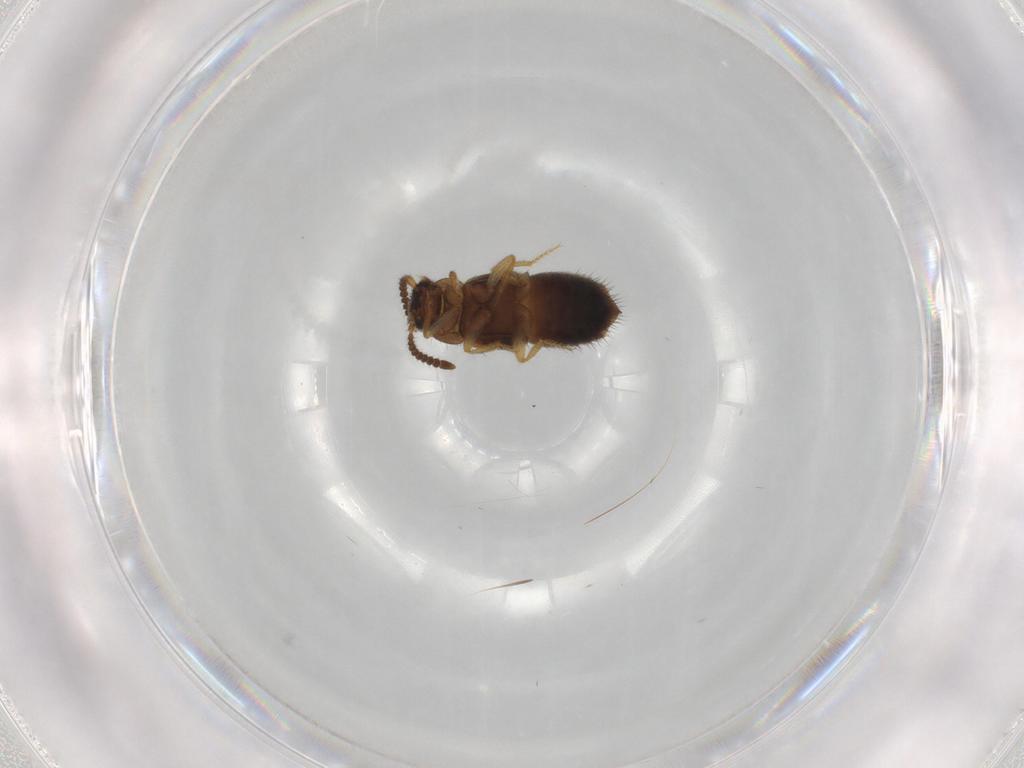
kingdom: Animalia
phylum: Arthropoda
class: Insecta
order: Coleoptera
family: Staphylinidae
